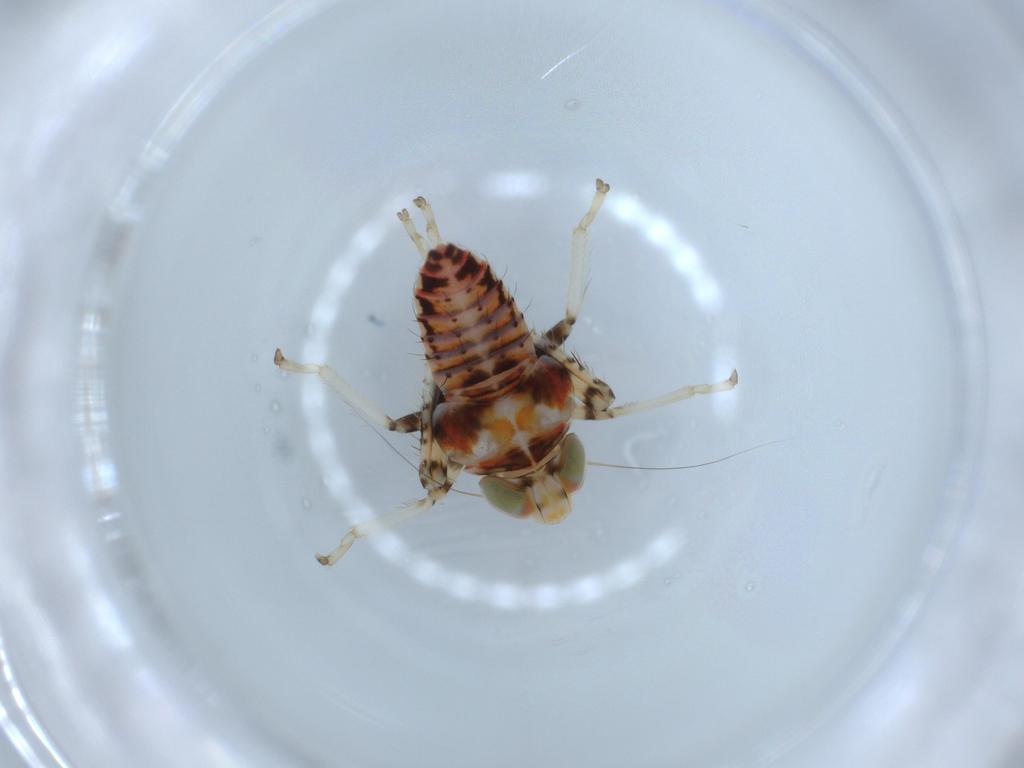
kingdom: Animalia
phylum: Arthropoda
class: Insecta
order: Hemiptera
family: Cicadellidae
